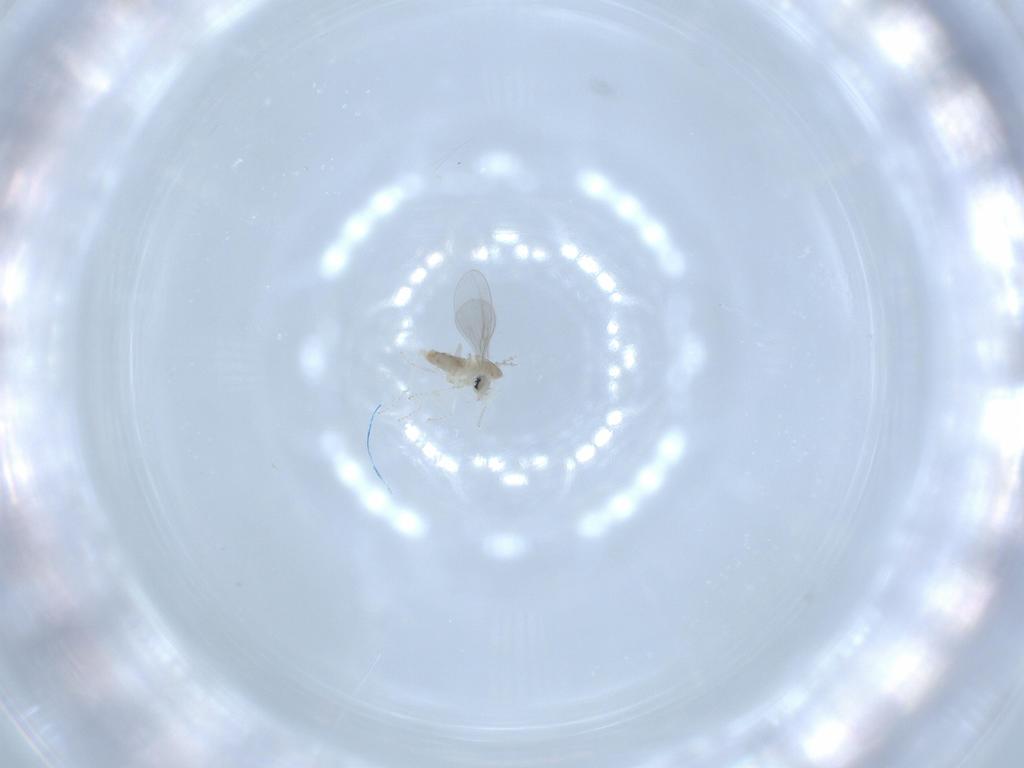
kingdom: Animalia
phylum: Arthropoda
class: Insecta
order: Diptera
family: Cecidomyiidae
